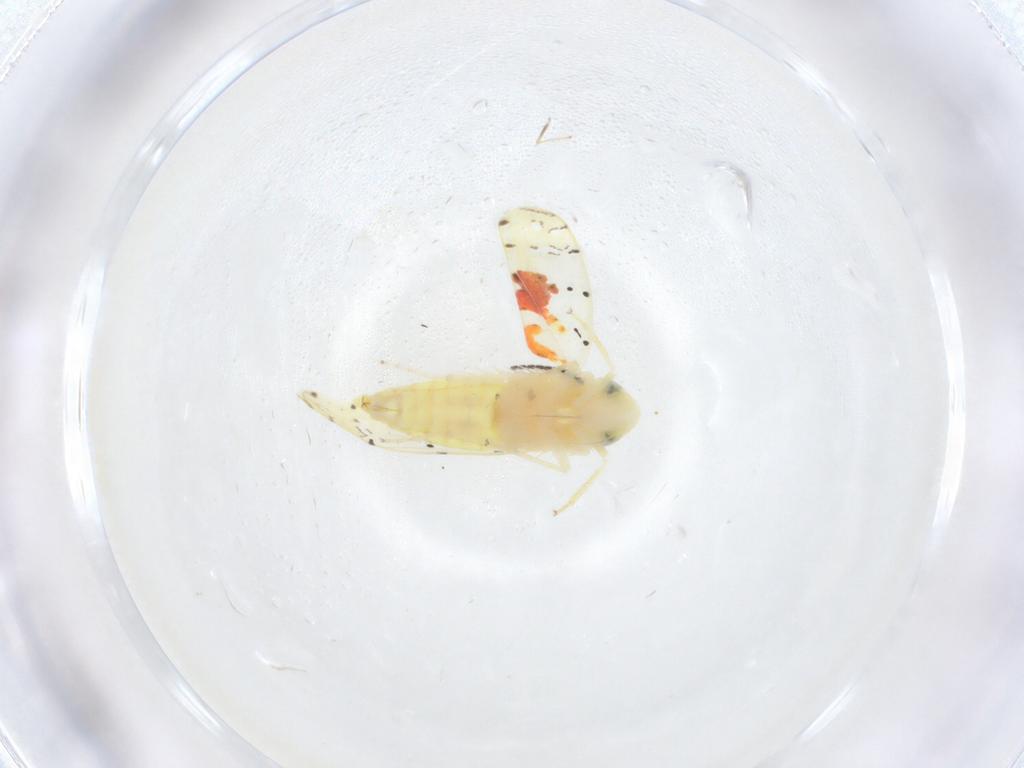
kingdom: Animalia
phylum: Arthropoda
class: Insecta
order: Hemiptera
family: Cicadellidae
